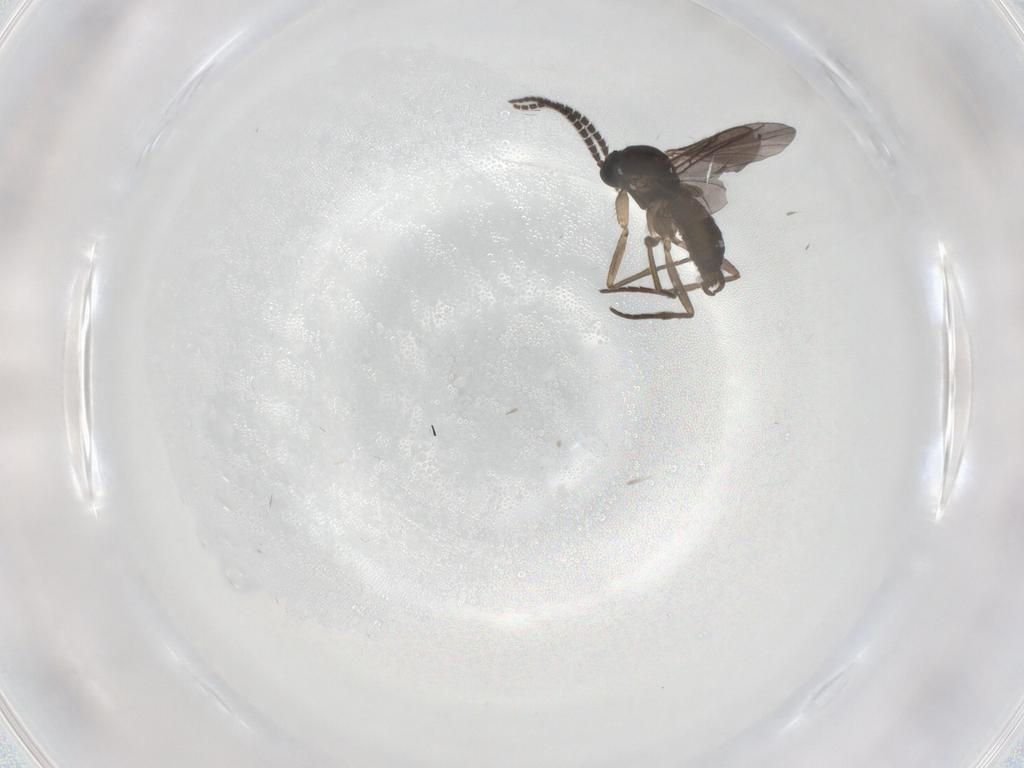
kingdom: Animalia
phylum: Arthropoda
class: Insecta
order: Diptera
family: Sciaridae
